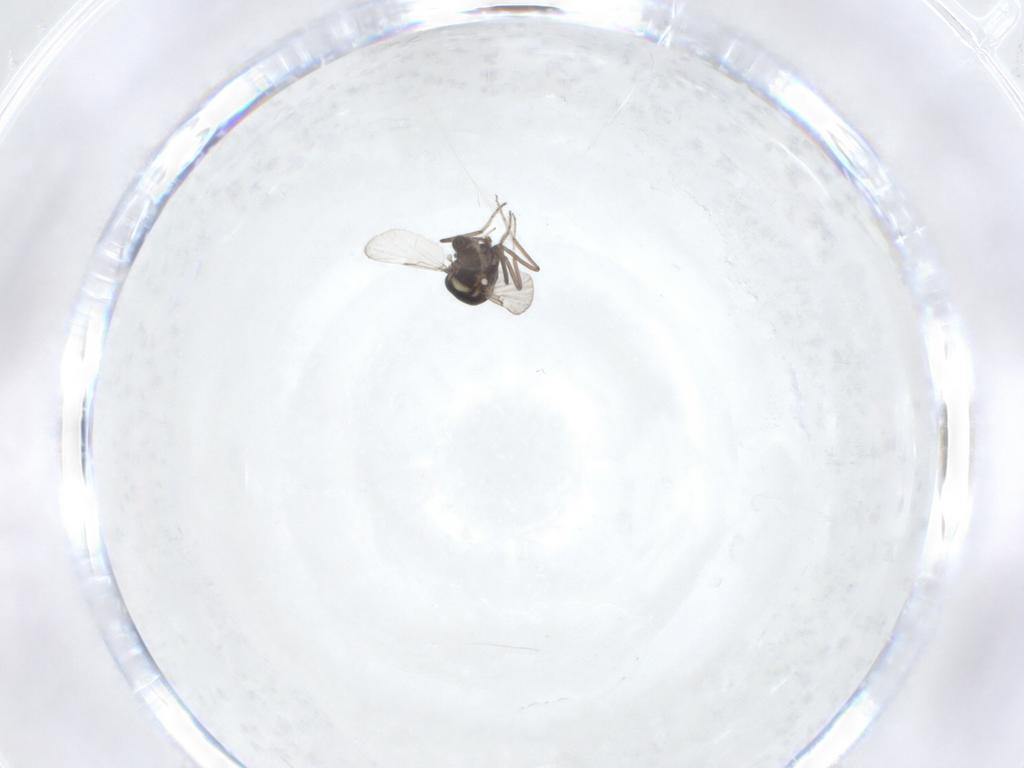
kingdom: Animalia
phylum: Arthropoda
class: Insecta
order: Diptera
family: Ceratopogonidae
